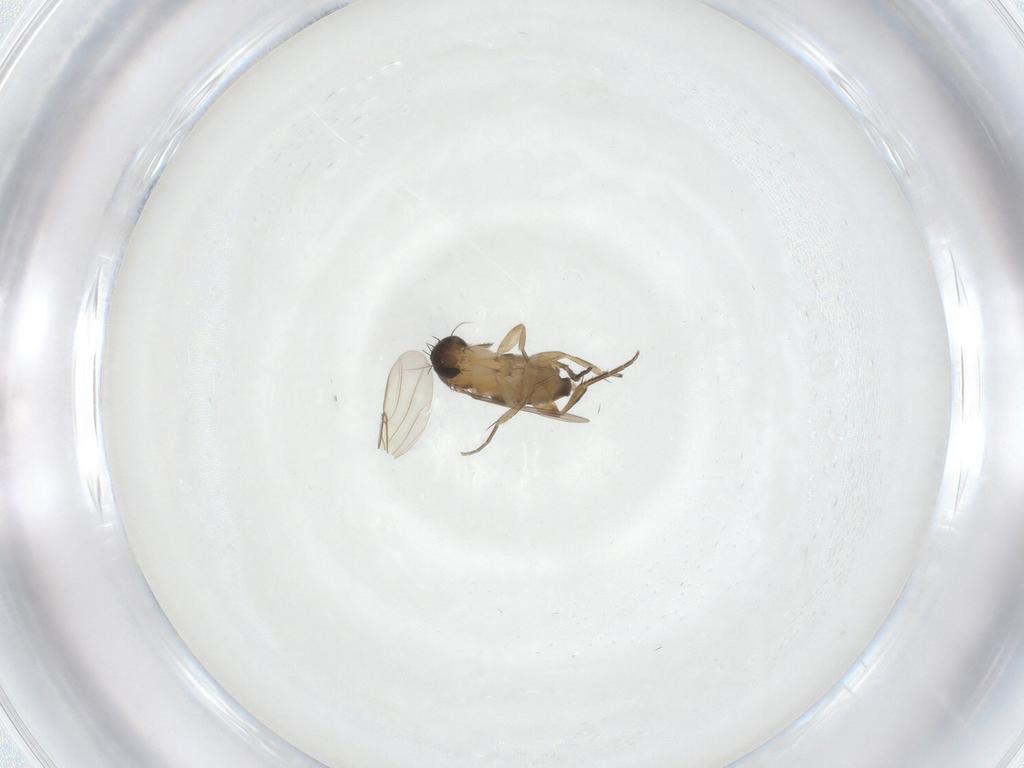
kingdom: Animalia
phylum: Arthropoda
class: Insecta
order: Diptera
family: Phoridae
